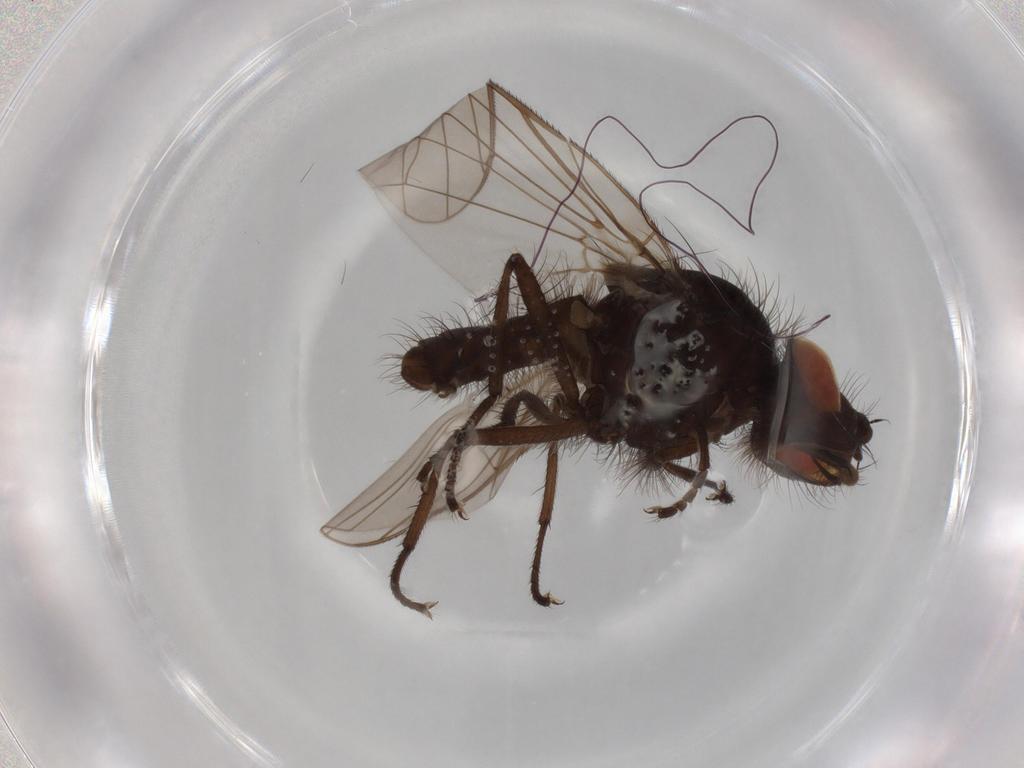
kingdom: Animalia
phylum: Arthropoda
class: Insecta
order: Diptera
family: Anthomyiidae
